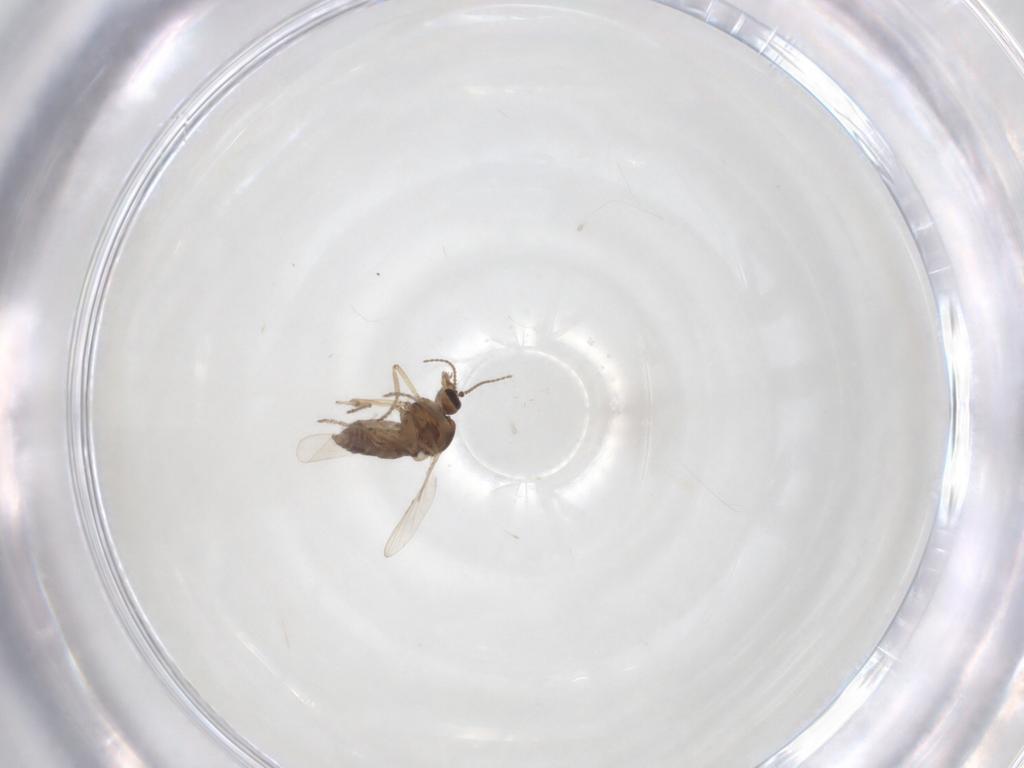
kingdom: Animalia
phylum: Arthropoda
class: Insecta
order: Diptera
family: Ceratopogonidae
